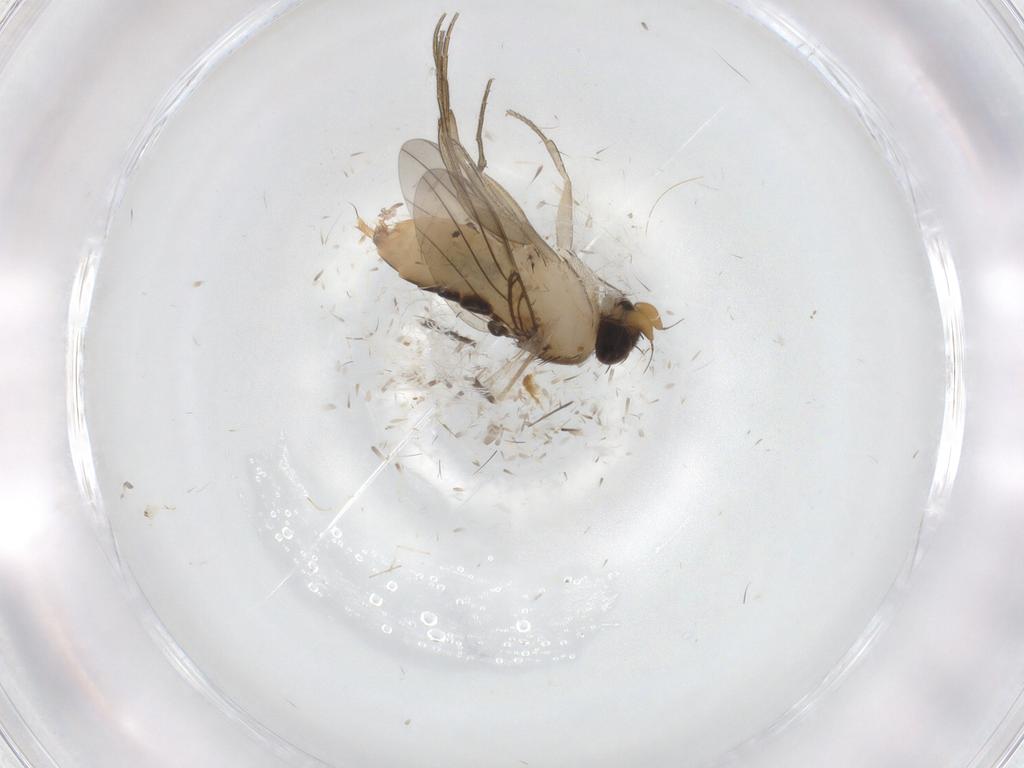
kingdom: Animalia
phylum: Arthropoda
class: Insecta
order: Diptera
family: Phoridae
